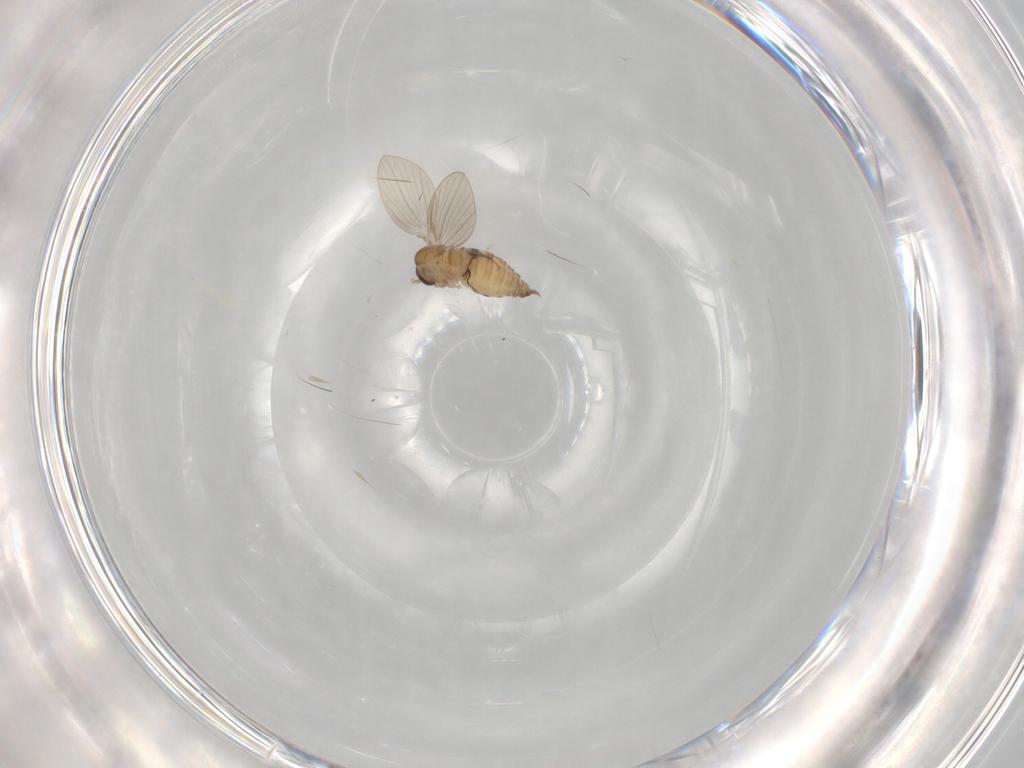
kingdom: Animalia
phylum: Arthropoda
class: Insecta
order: Diptera
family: Psychodidae
